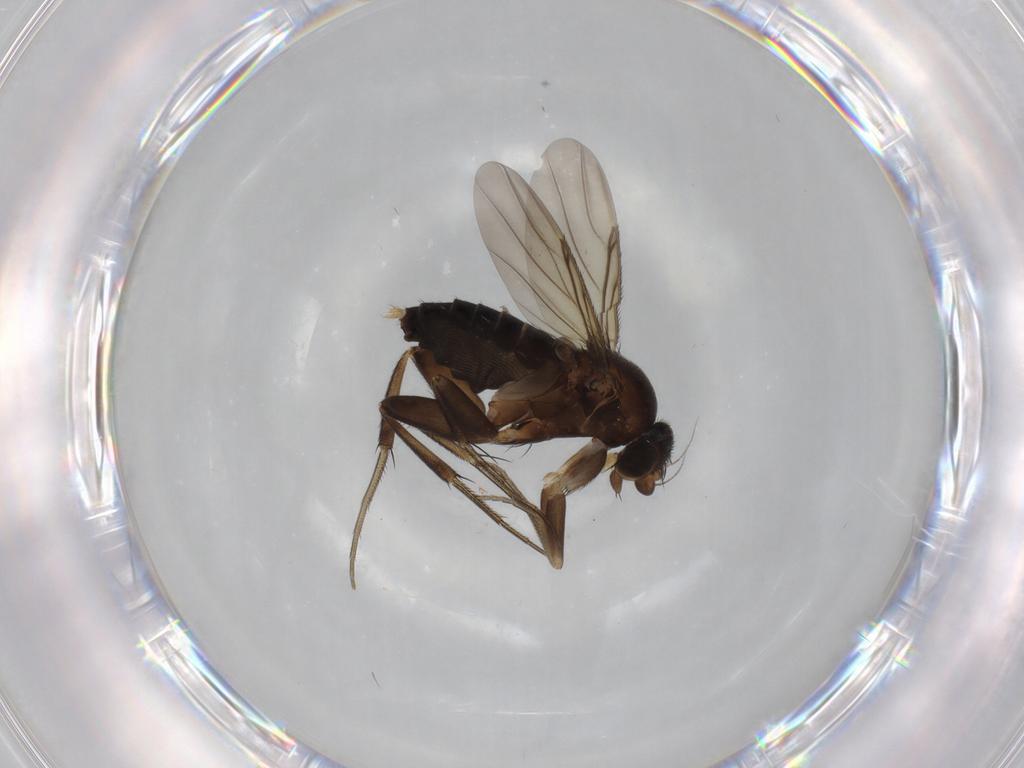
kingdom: Animalia
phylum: Arthropoda
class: Insecta
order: Diptera
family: Phoridae
